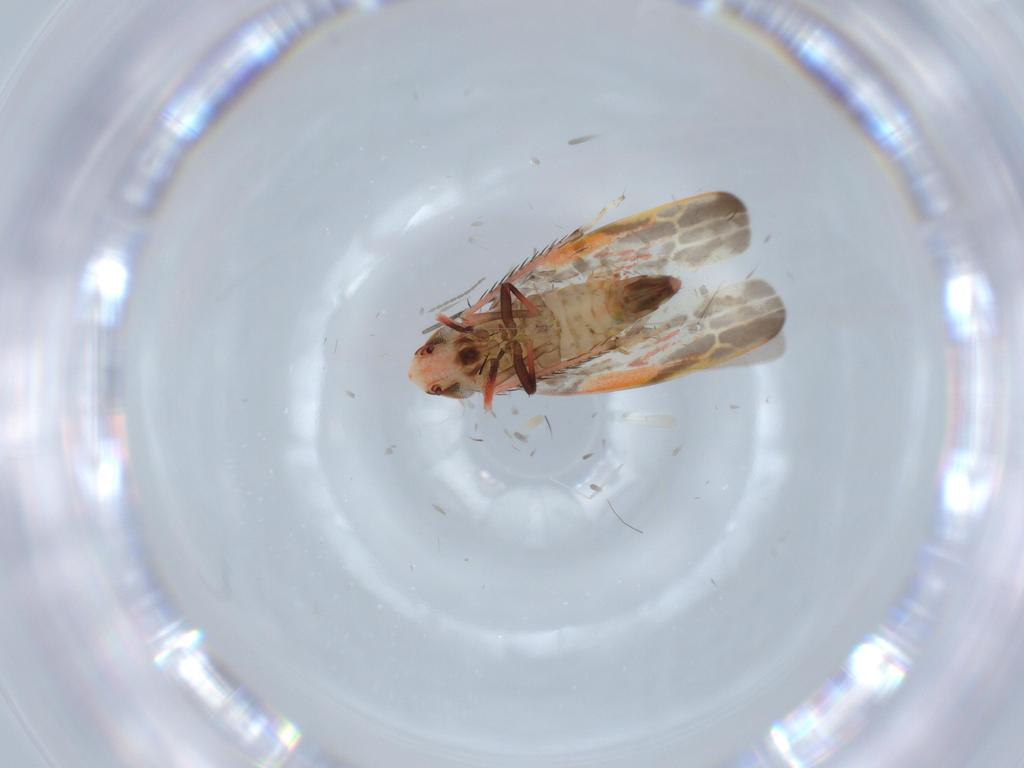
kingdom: Animalia
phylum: Arthropoda
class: Insecta
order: Hemiptera
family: Cicadellidae
